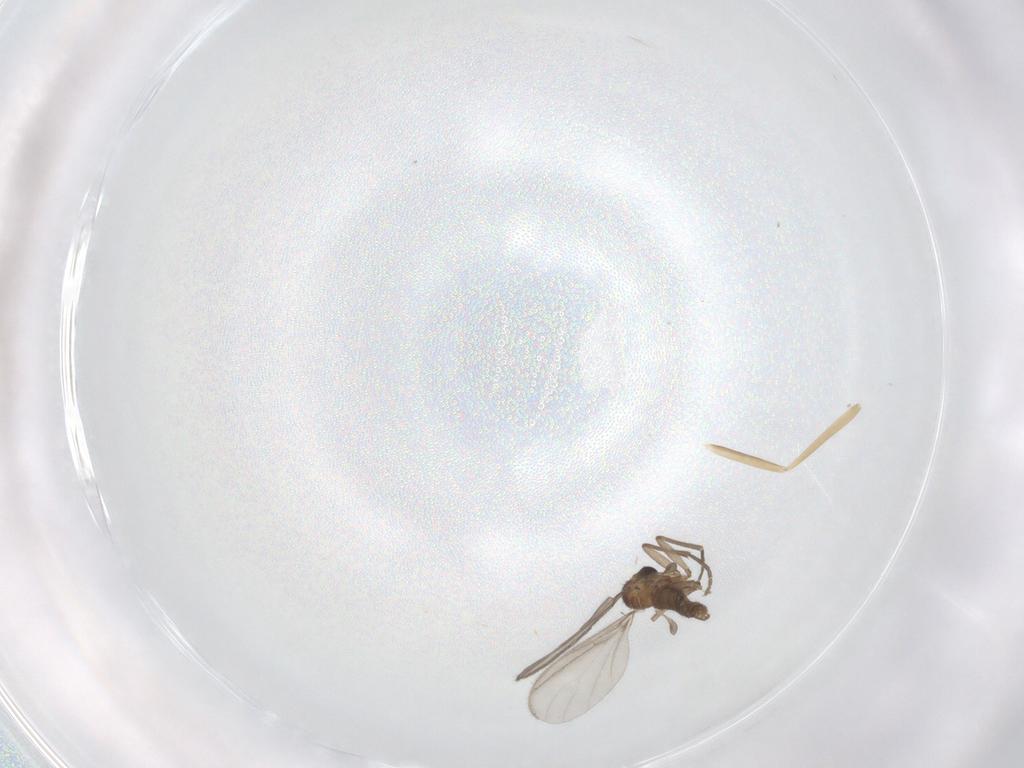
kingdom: Animalia
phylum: Arthropoda
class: Insecta
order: Diptera
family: Sciaridae
